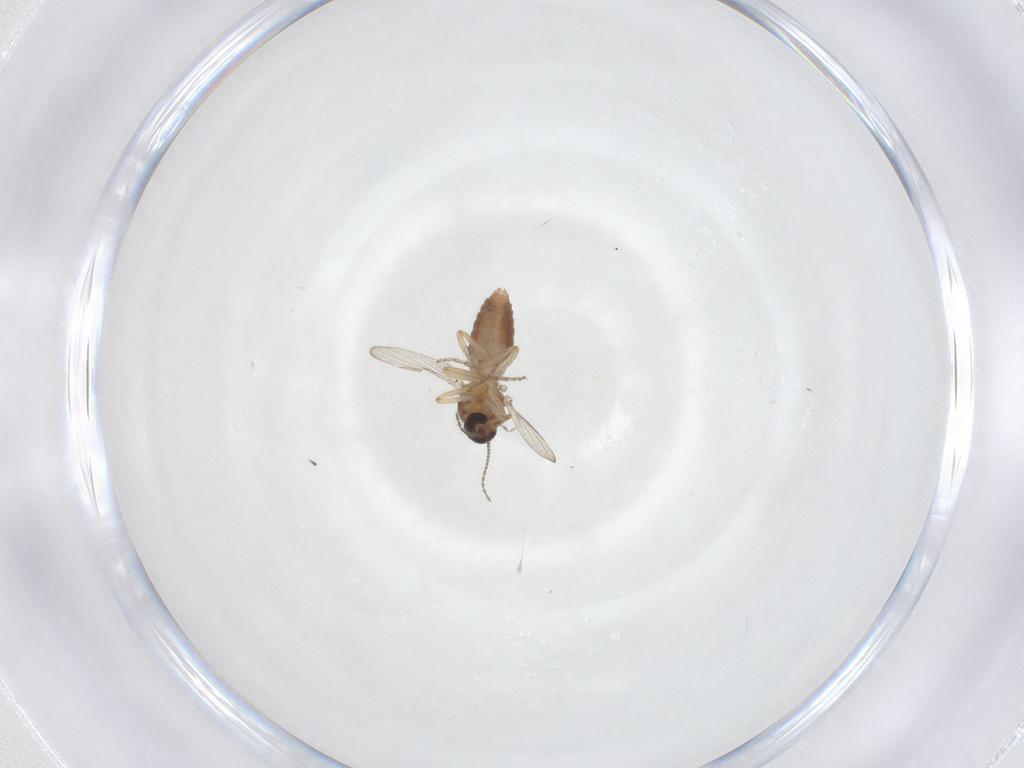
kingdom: Animalia
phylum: Arthropoda
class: Insecta
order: Diptera
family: Ceratopogonidae
